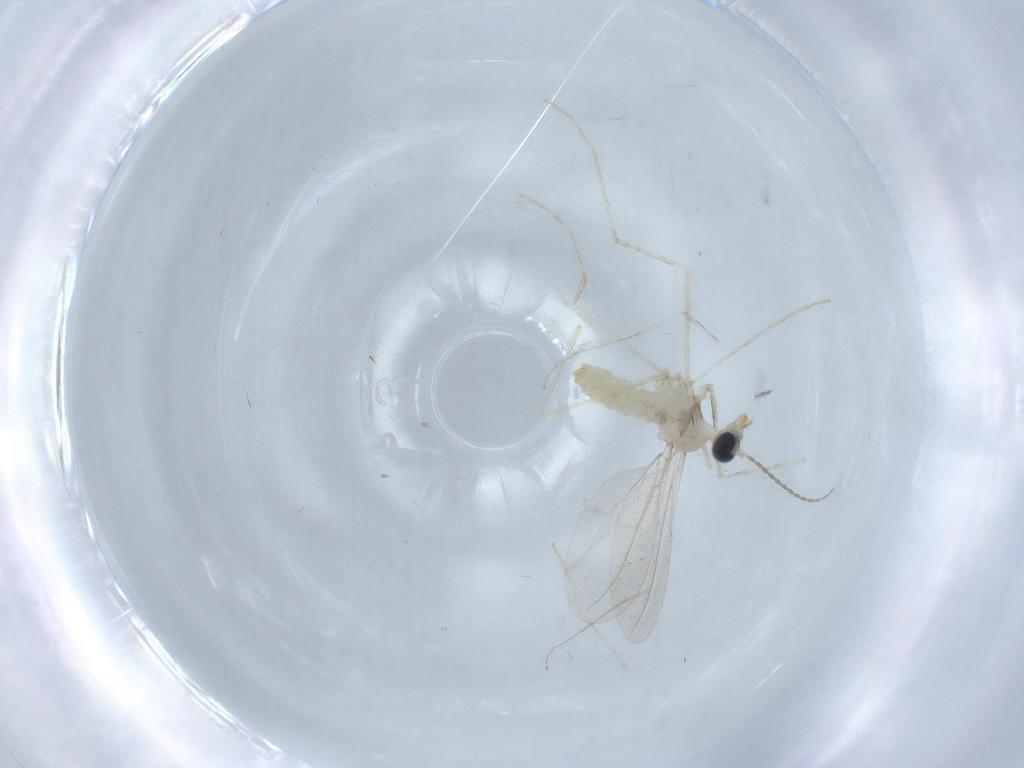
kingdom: Animalia
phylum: Arthropoda
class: Insecta
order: Diptera
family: Cecidomyiidae
